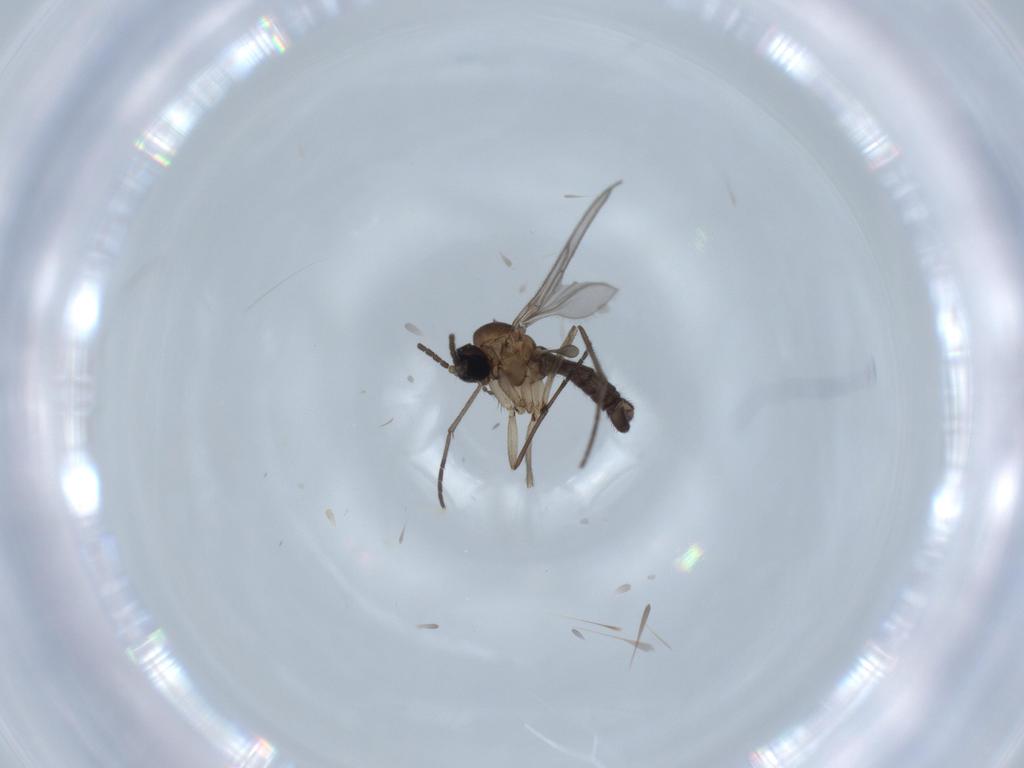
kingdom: Animalia
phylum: Arthropoda
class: Insecta
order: Diptera
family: Sciaridae
